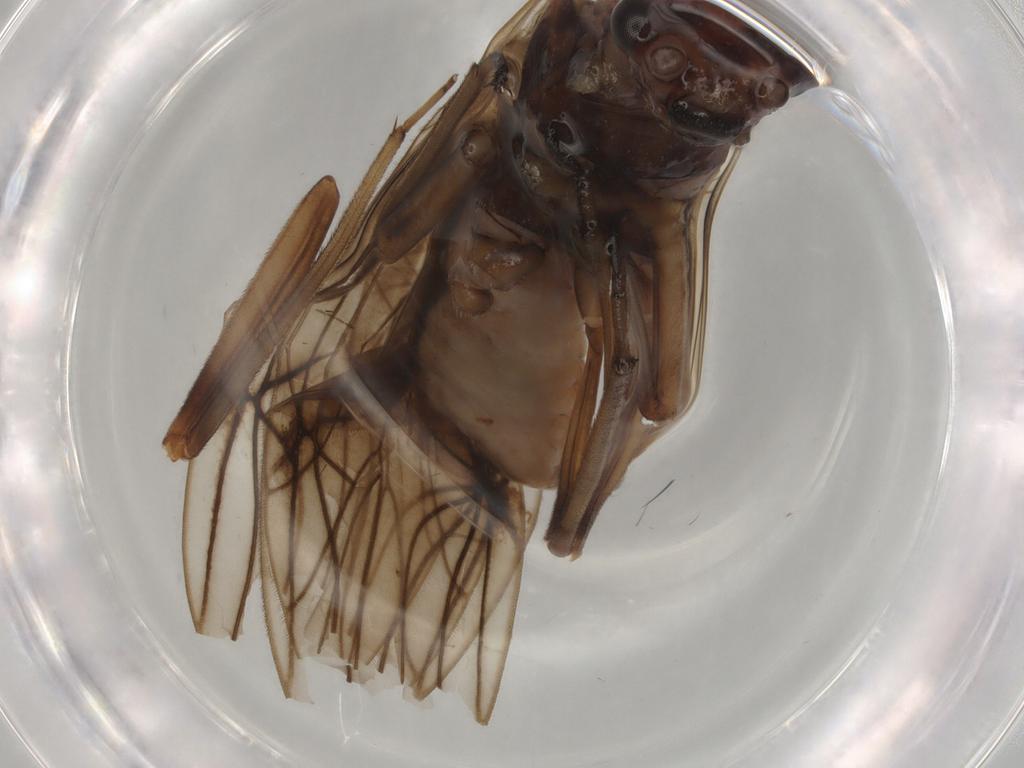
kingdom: Animalia
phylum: Arthropoda
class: Insecta
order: Plecoptera
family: Nemouridae
